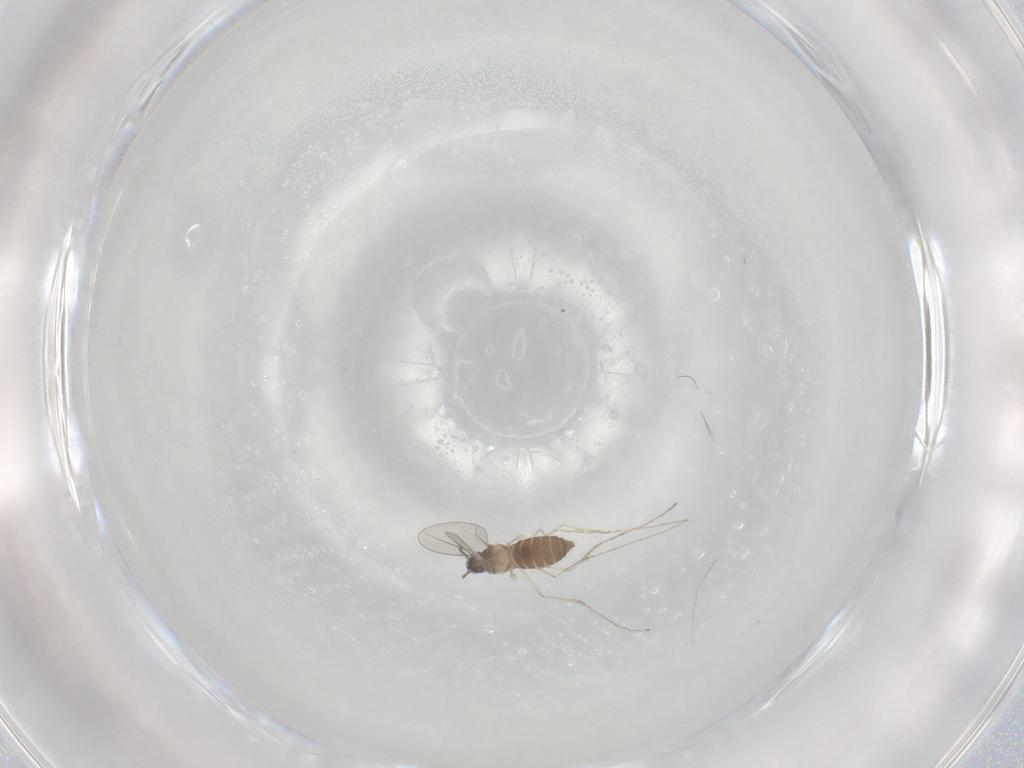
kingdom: Animalia
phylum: Arthropoda
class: Insecta
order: Diptera
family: Cecidomyiidae
